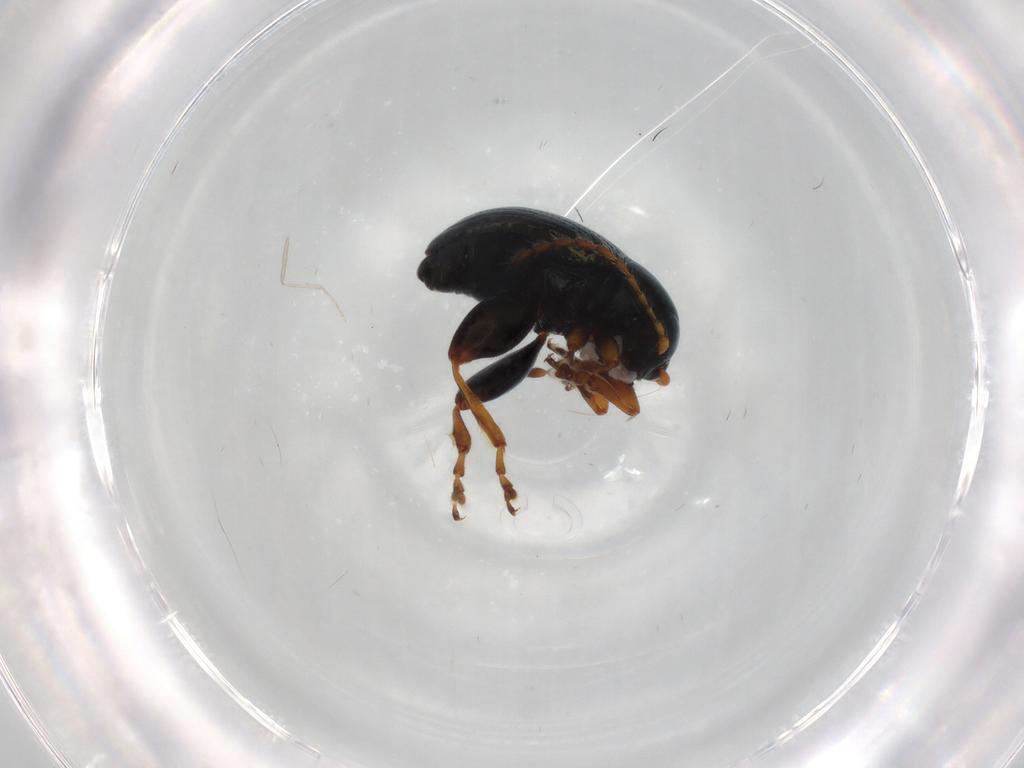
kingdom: Animalia
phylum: Arthropoda
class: Insecta
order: Coleoptera
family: Chrysomelidae
